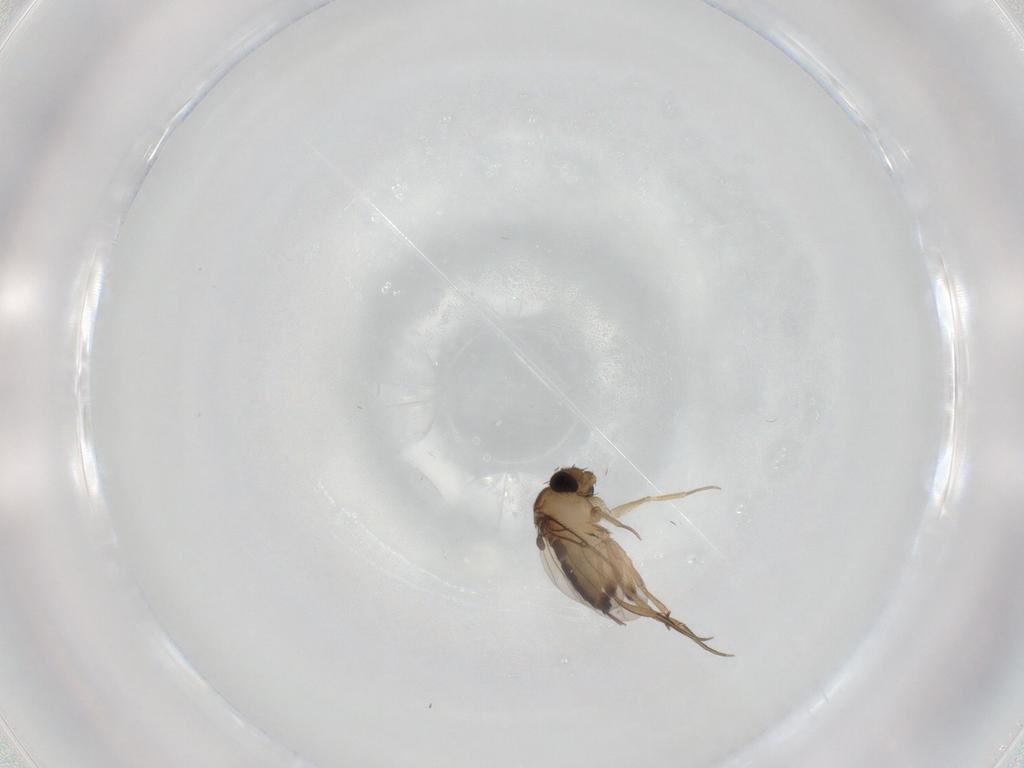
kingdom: Animalia
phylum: Arthropoda
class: Insecta
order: Diptera
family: Phoridae
